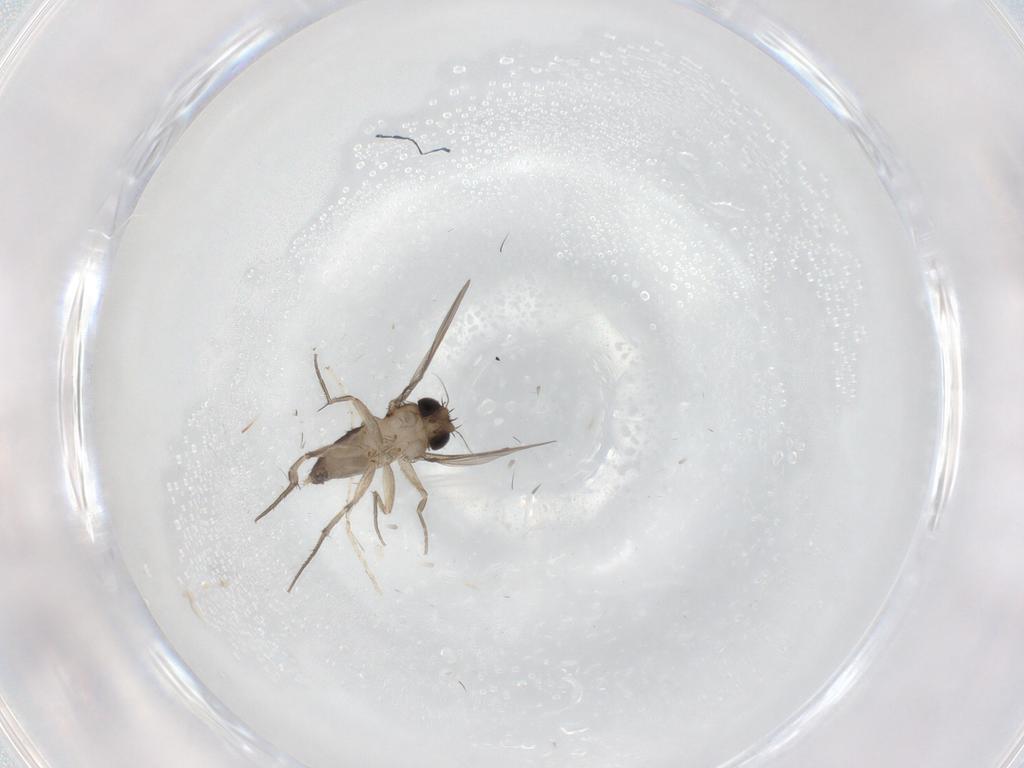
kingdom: Animalia
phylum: Arthropoda
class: Insecta
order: Diptera
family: Phoridae
